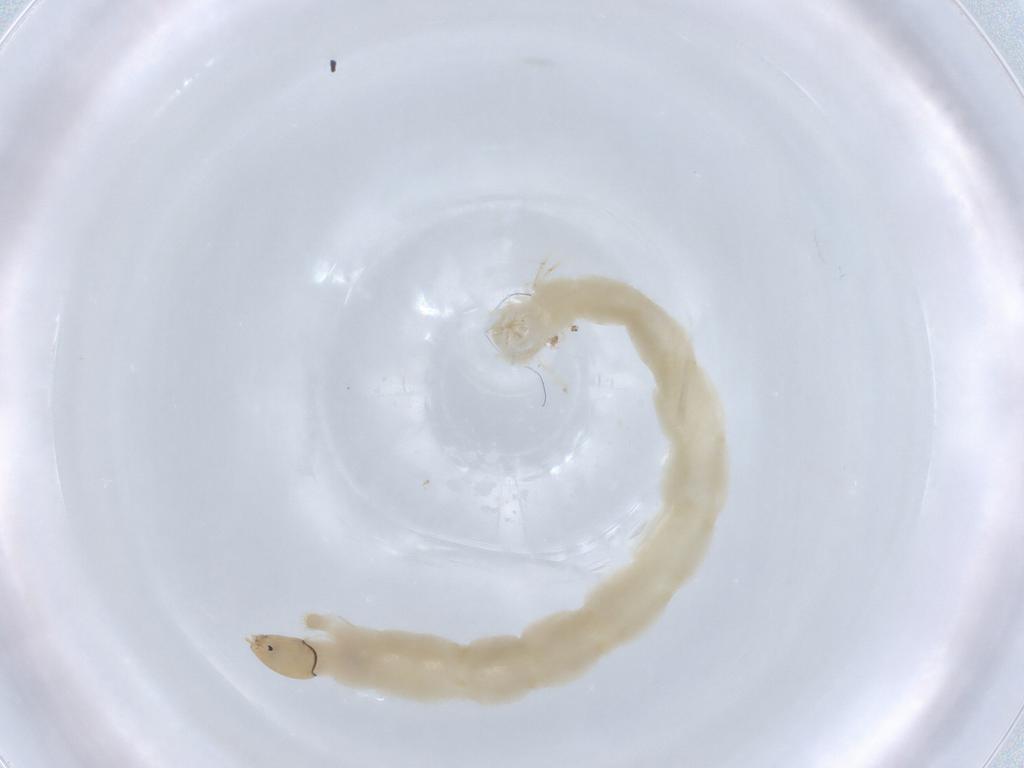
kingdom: Animalia
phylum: Arthropoda
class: Insecta
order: Diptera
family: Chironomidae
